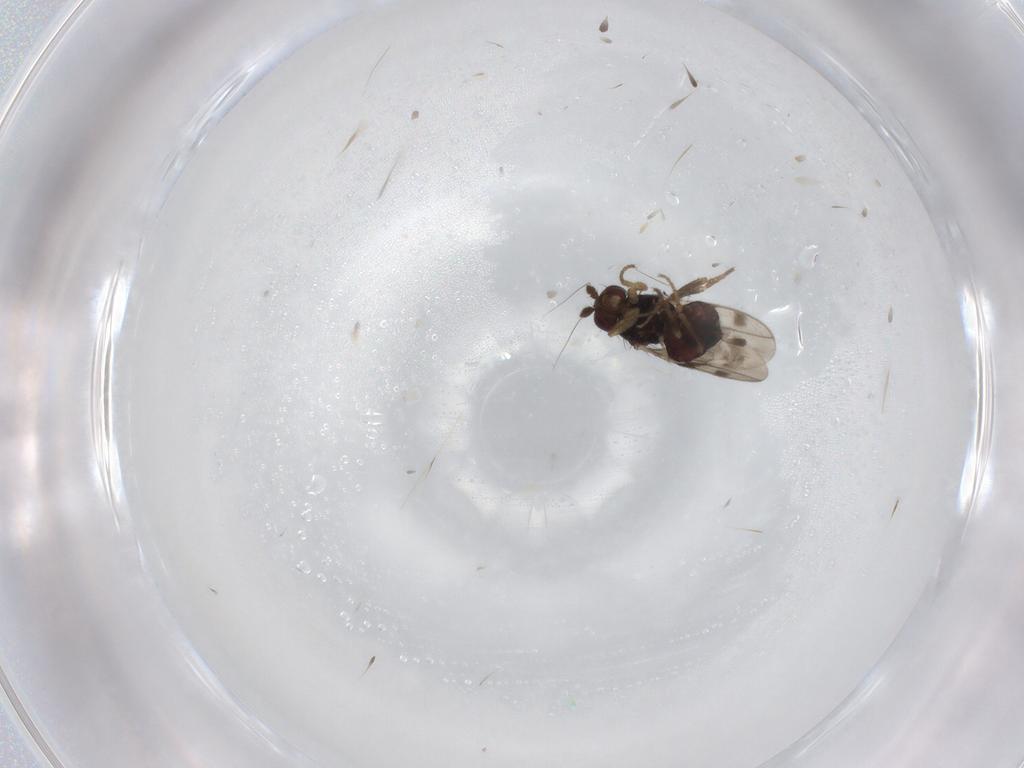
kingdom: Animalia
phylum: Arthropoda
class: Insecta
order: Diptera
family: Sphaeroceridae
